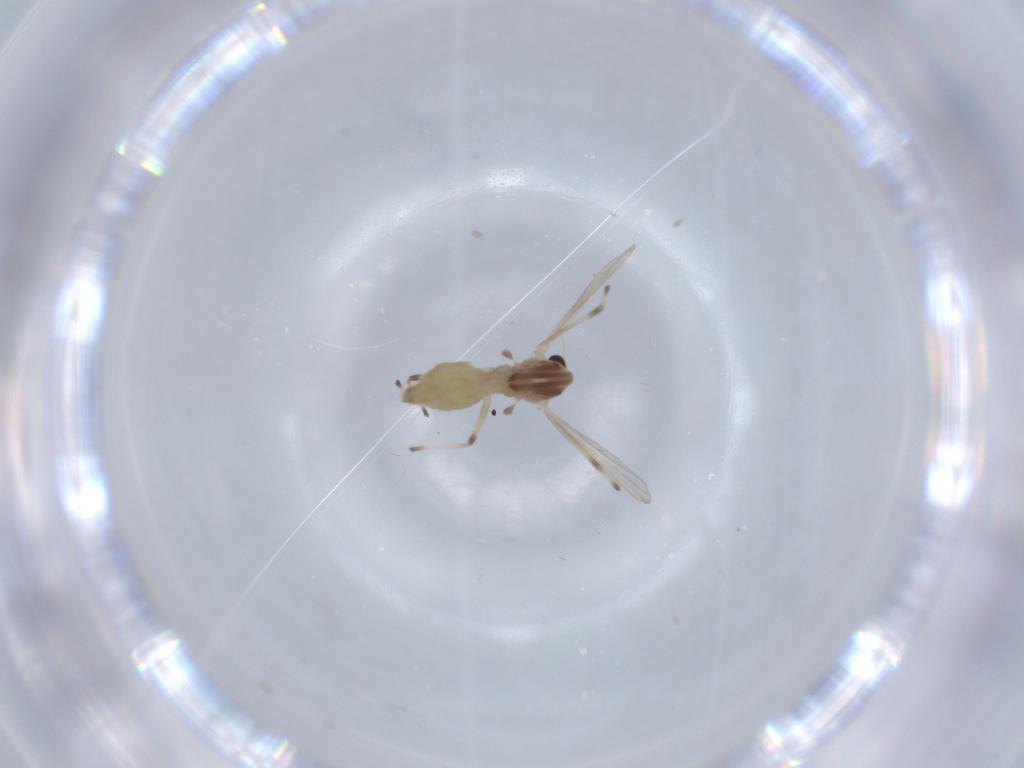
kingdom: Animalia
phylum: Arthropoda
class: Insecta
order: Diptera
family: Chironomidae
